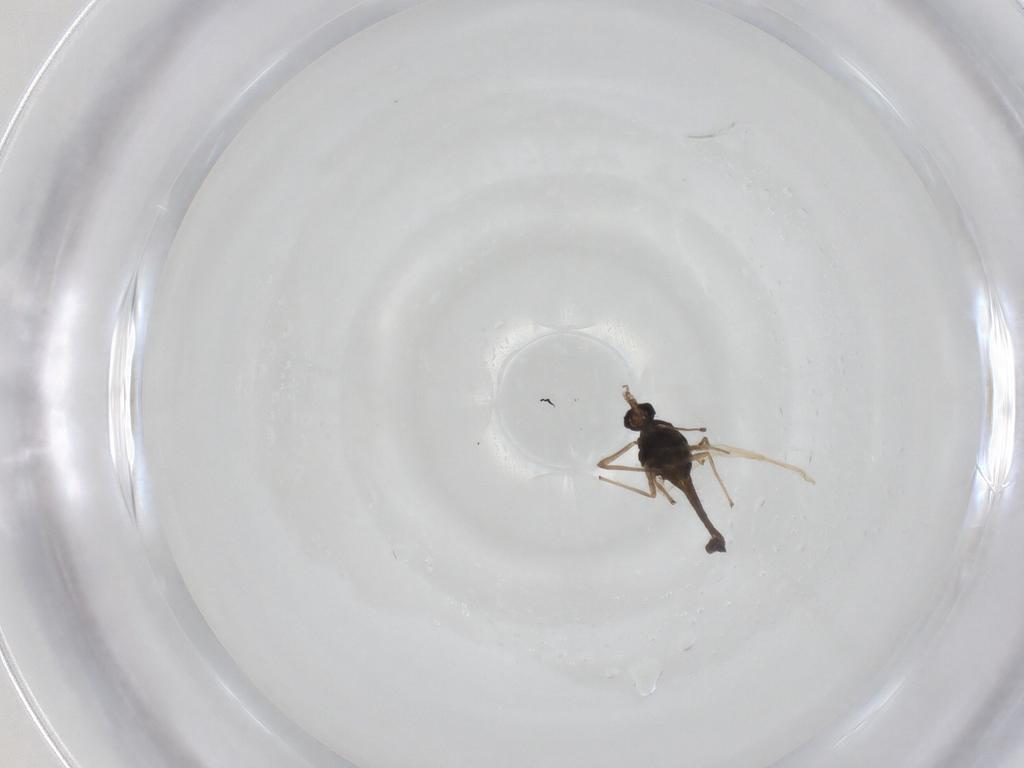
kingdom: Animalia
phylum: Arthropoda
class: Insecta
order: Diptera
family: Chironomidae
